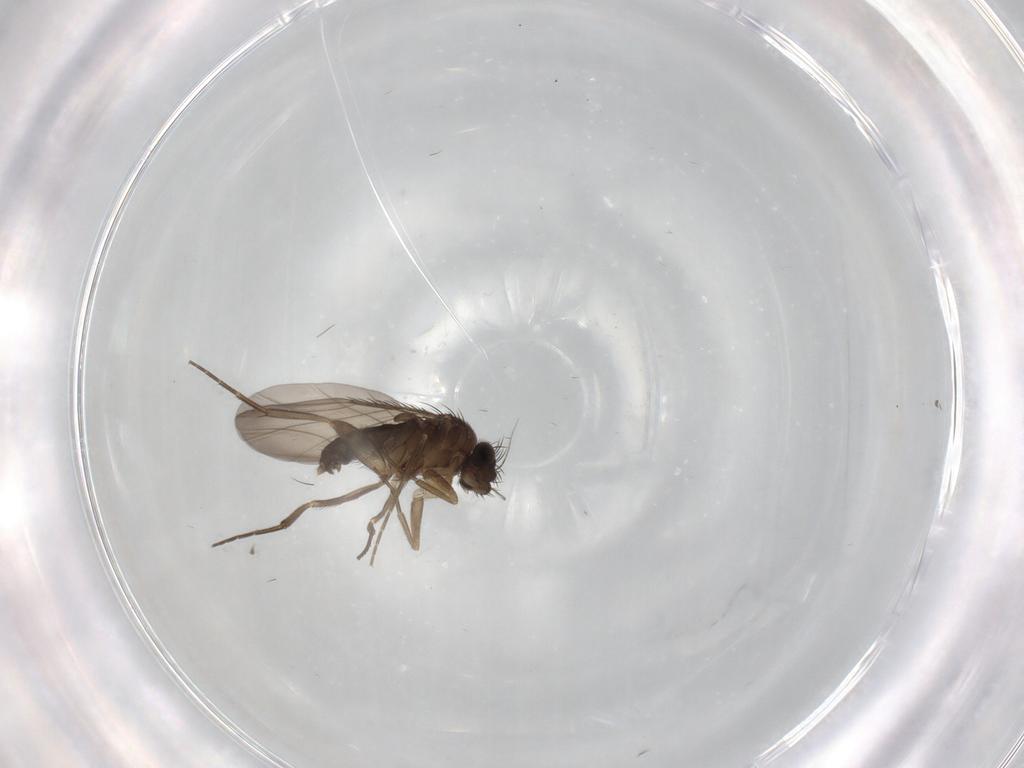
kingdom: Animalia
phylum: Arthropoda
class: Insecta
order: Diptera
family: Phoridae
